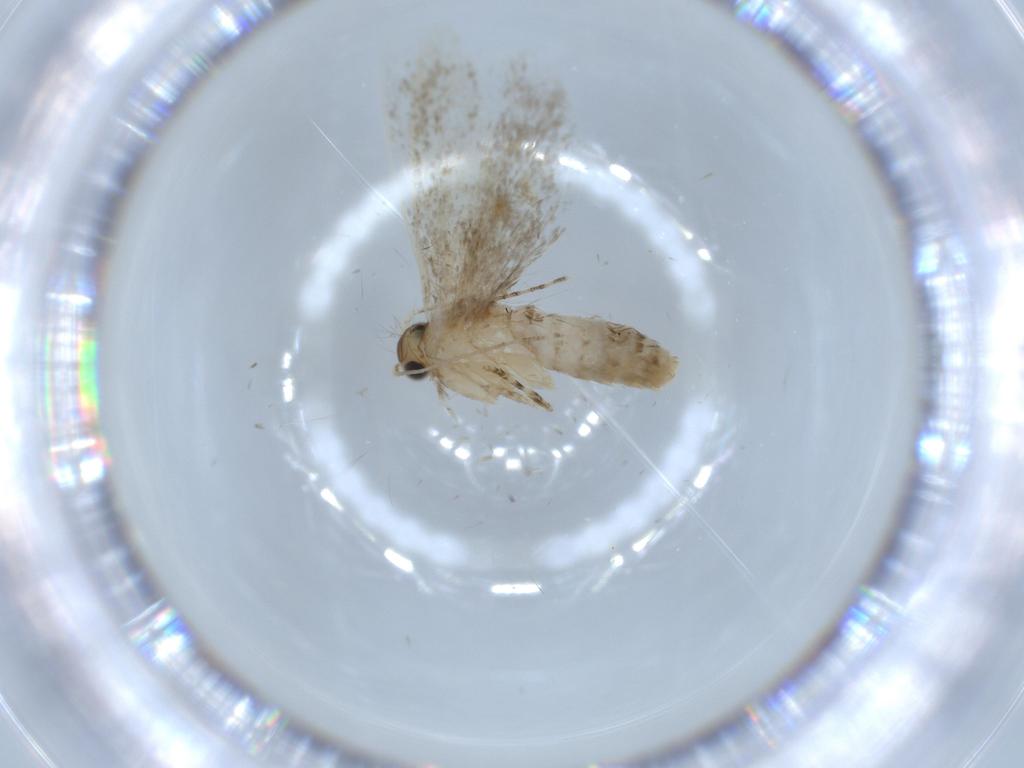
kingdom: Animalia
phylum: Arthropoda
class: Insecta
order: Lepidoptera
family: Tineidae
